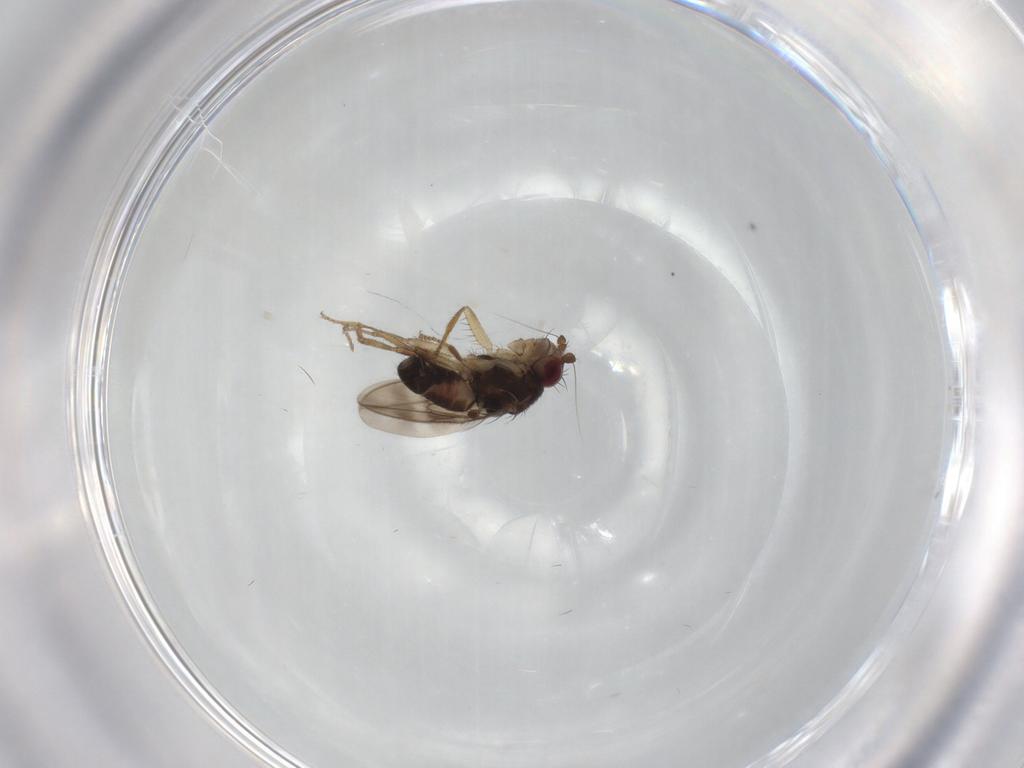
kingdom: Animalia
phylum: Arthropoda
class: Insecta
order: Diptera
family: Sphaeroceridae
